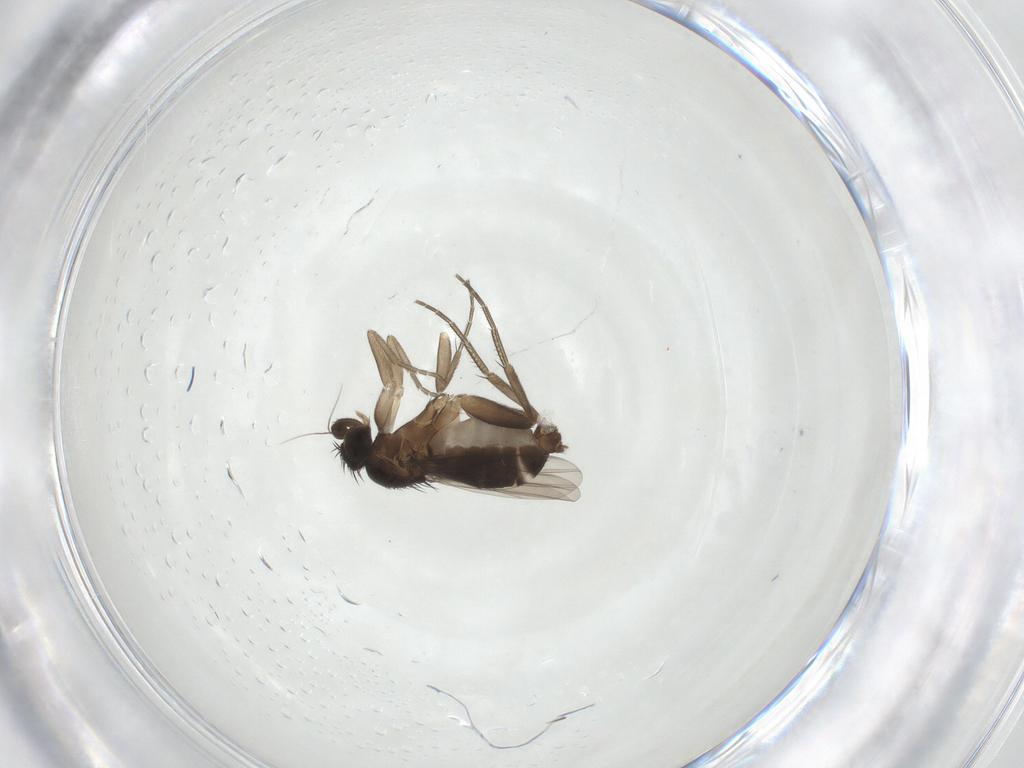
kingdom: Animalia
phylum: Arthropoda
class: Insecta
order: Diptera
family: Phoridae
